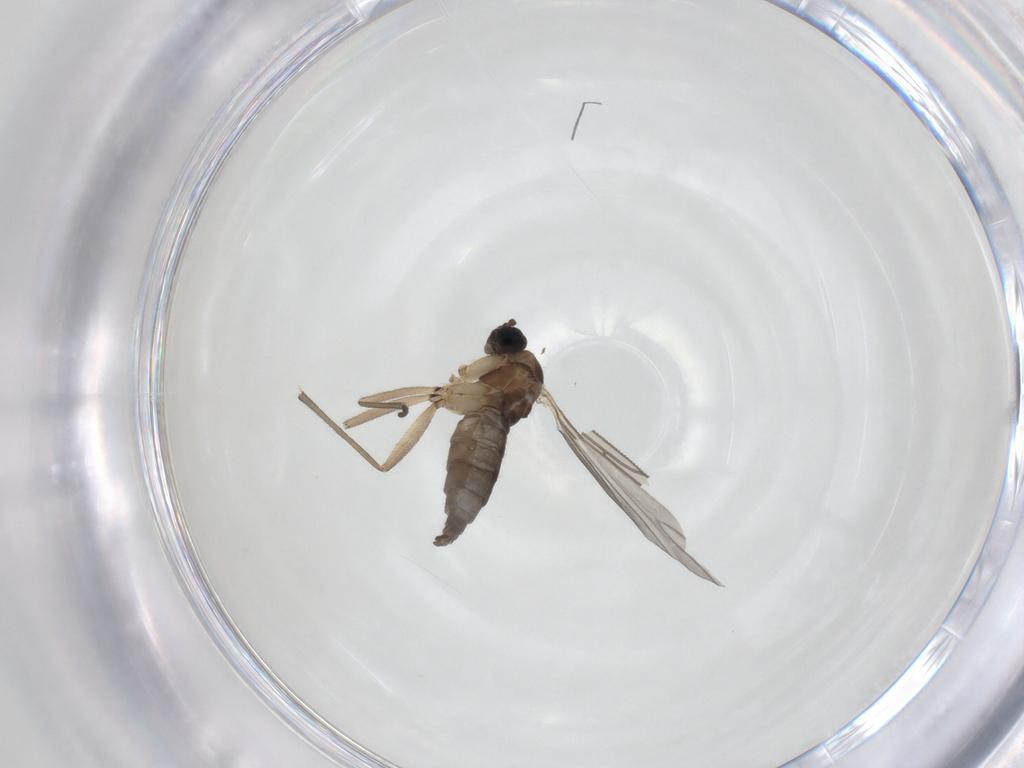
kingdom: Animalia
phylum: Arthropoda
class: Insecta
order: Diptera
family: Sciaridae
